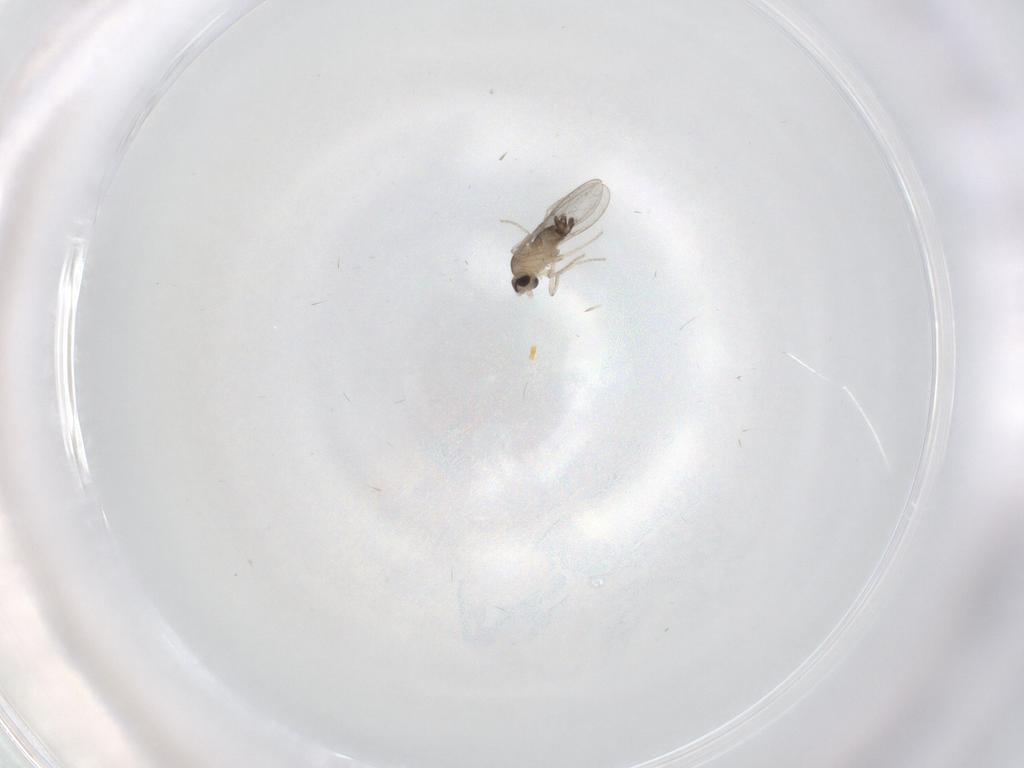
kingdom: Animalia
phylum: Arthropoda
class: Insecta
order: Diptera
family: Cecidomyiidae
